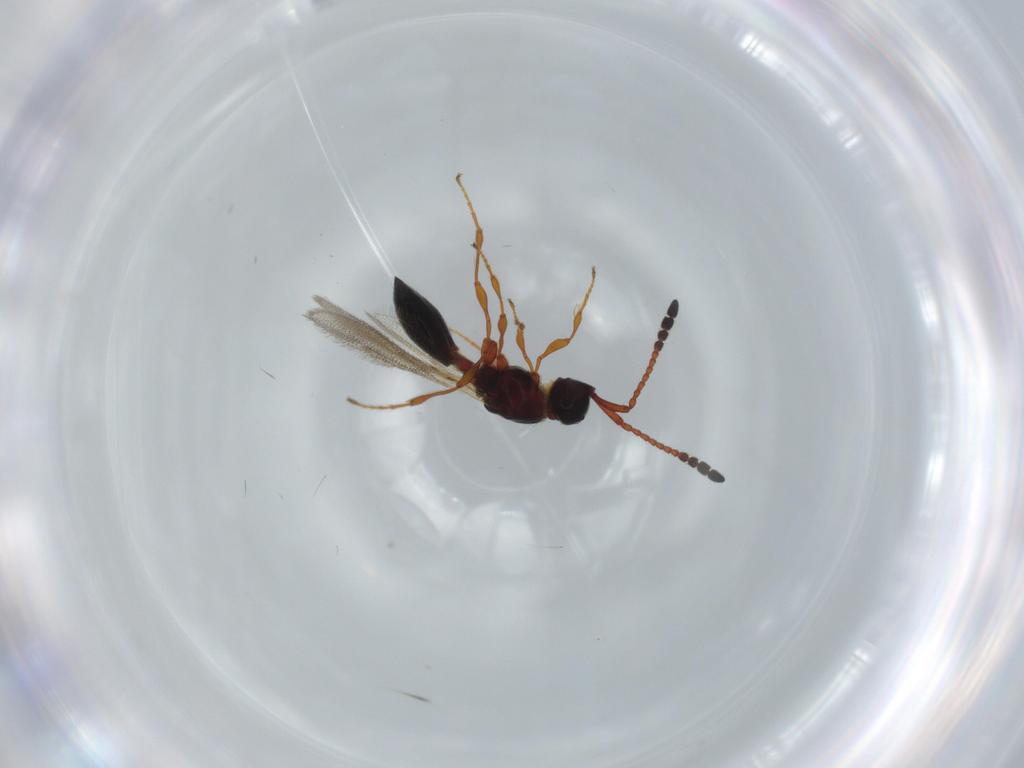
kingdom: Animalia
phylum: Arthropoda
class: Insecta
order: Hymenoptera
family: Diapriidae
